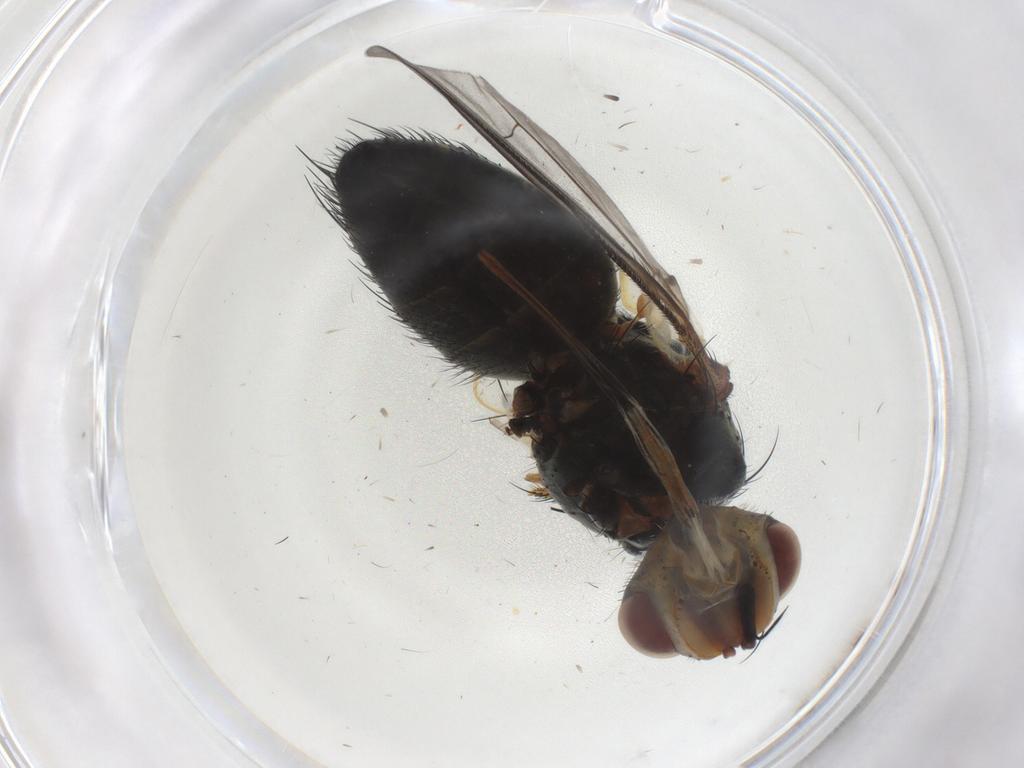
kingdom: Animalia
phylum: Arthropoda
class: Insecta
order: Diptera
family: Tachinidae
